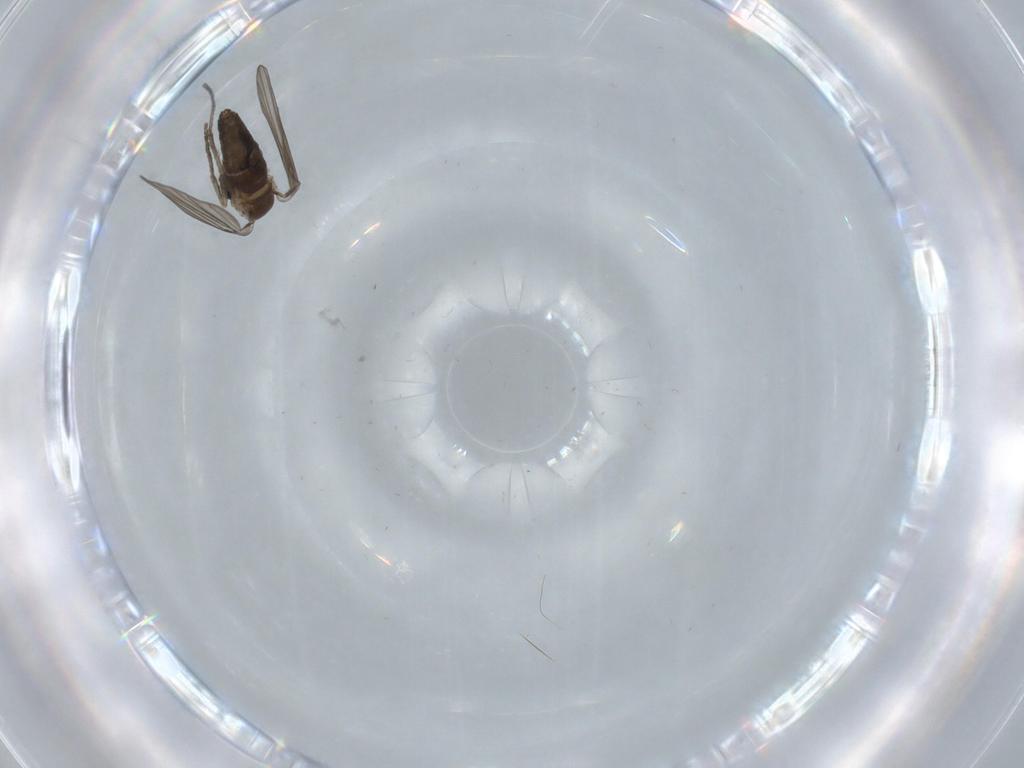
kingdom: Animalia
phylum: Arthropoda
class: Insecta
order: Diptera
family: Psychodidae
